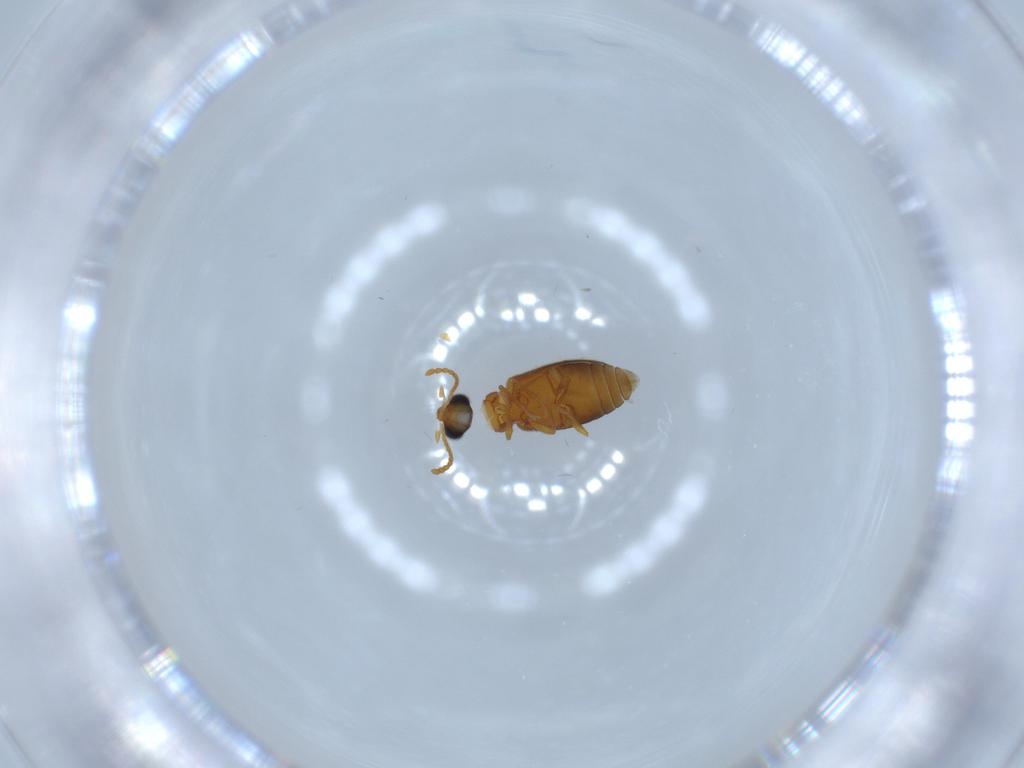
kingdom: Animalia
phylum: Arthropoda
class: Insecta
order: Coleoptera
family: Aderidae
